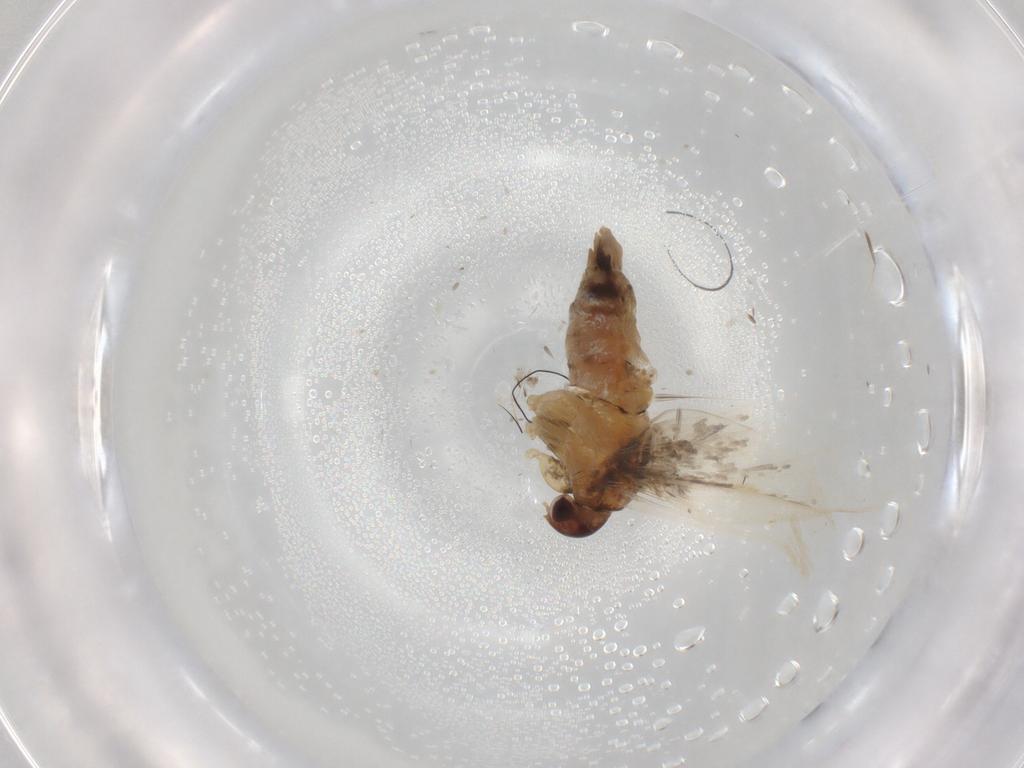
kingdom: Animalia
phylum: Arthropoda
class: Insecta
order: Lepidoptera
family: Oecophoridae
